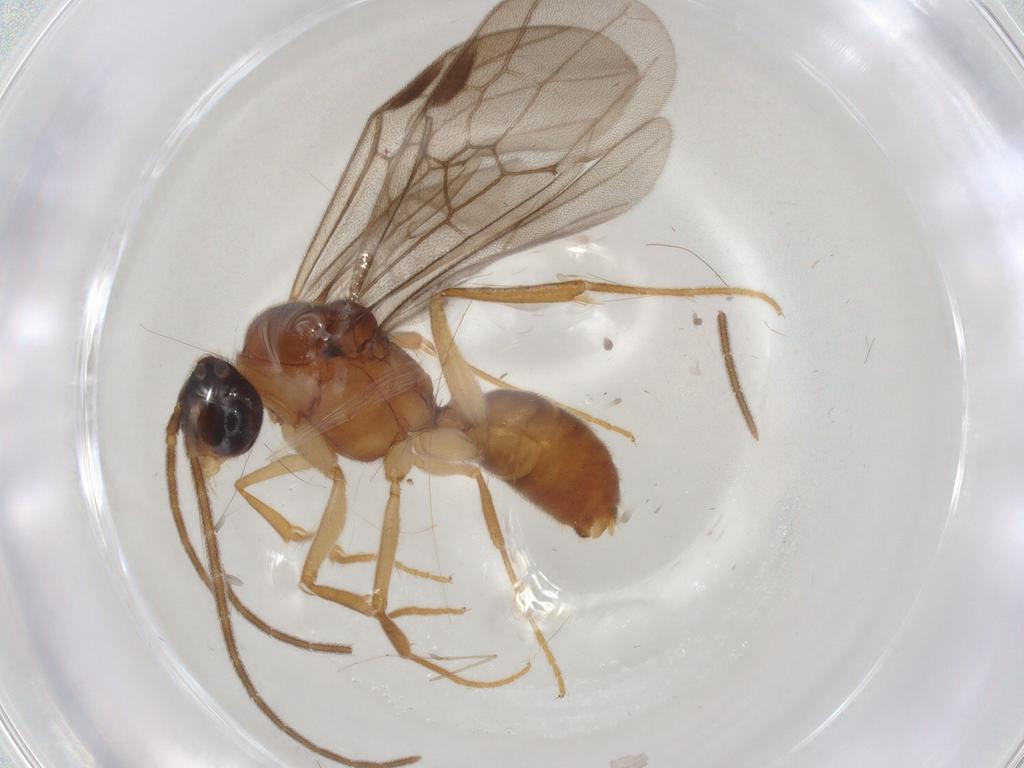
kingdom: Animalia
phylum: Arthropoda
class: Insecta
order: Hymenoptera
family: Formicidae
